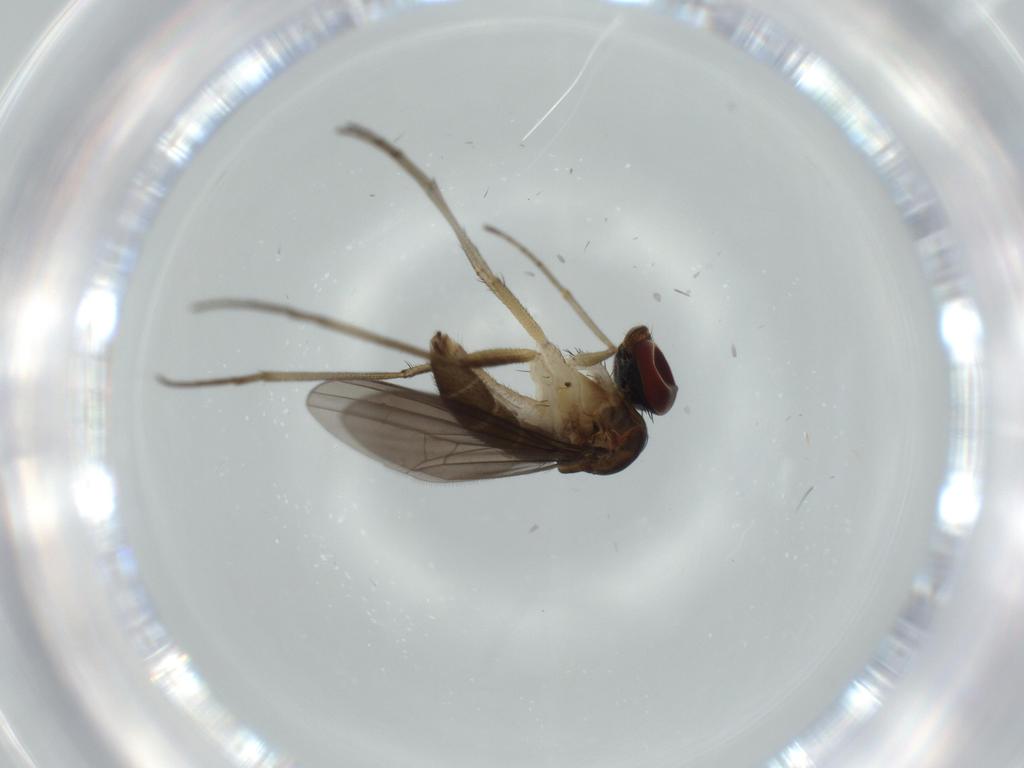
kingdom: Animalia
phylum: Arthropoda
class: Insecta
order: Diptera
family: Dolichopodidae
